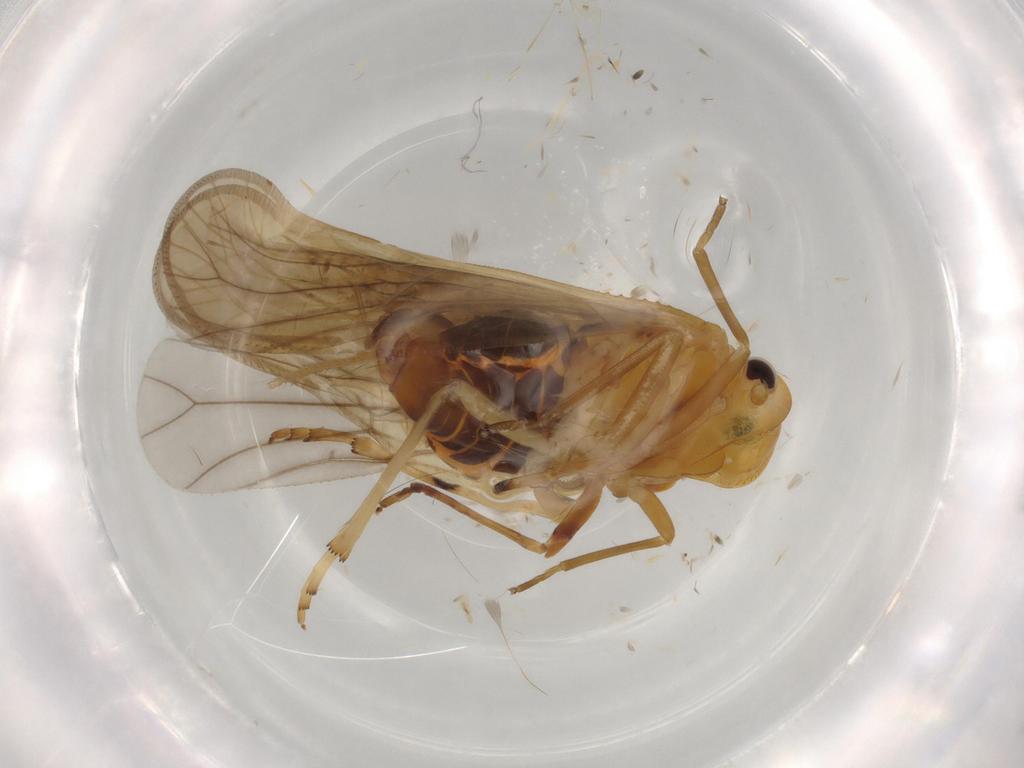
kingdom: Animalia
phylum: Arthropoda
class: Insecta
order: Hemiptera
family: Rhyparochromidae
